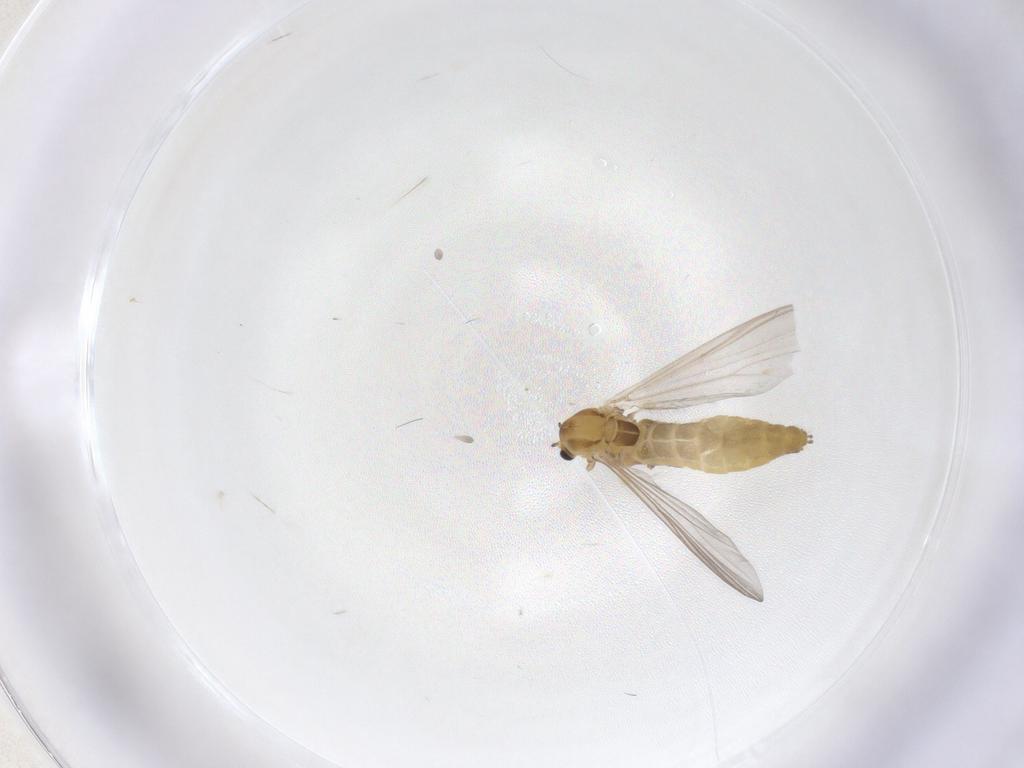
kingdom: Animalia
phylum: Arthropoda
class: Insecta
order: Diptera
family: Chironomidae
